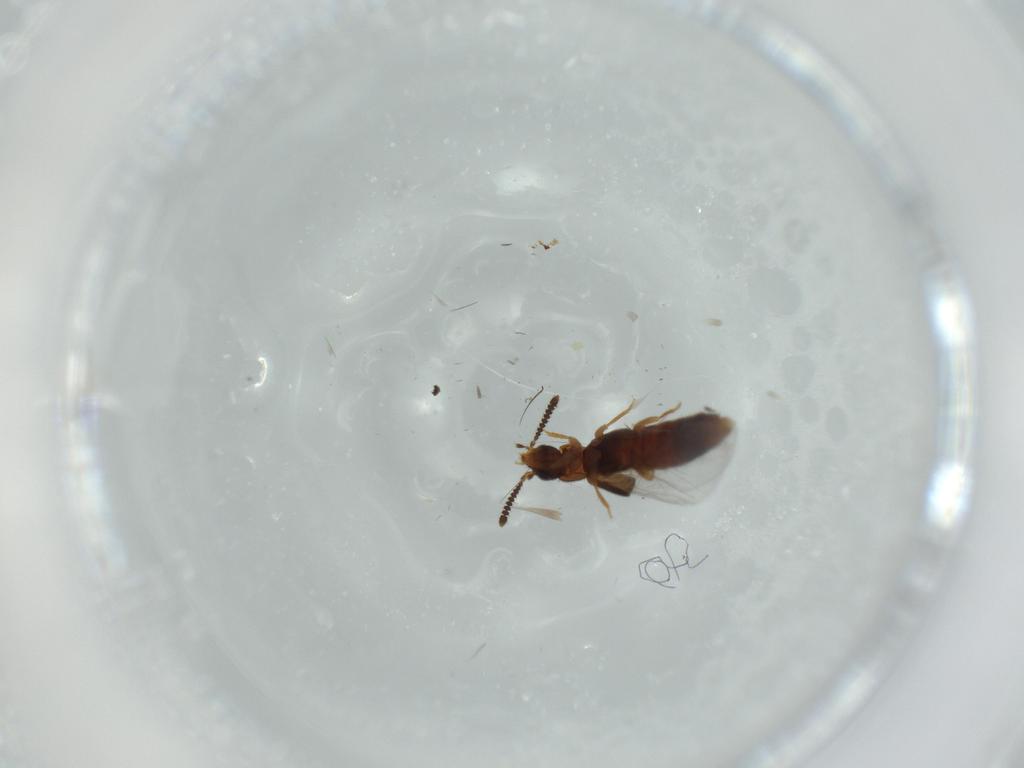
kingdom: Animalia
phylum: Arthropoda
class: Insecta
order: Coleoptera
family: Staphylinidae
